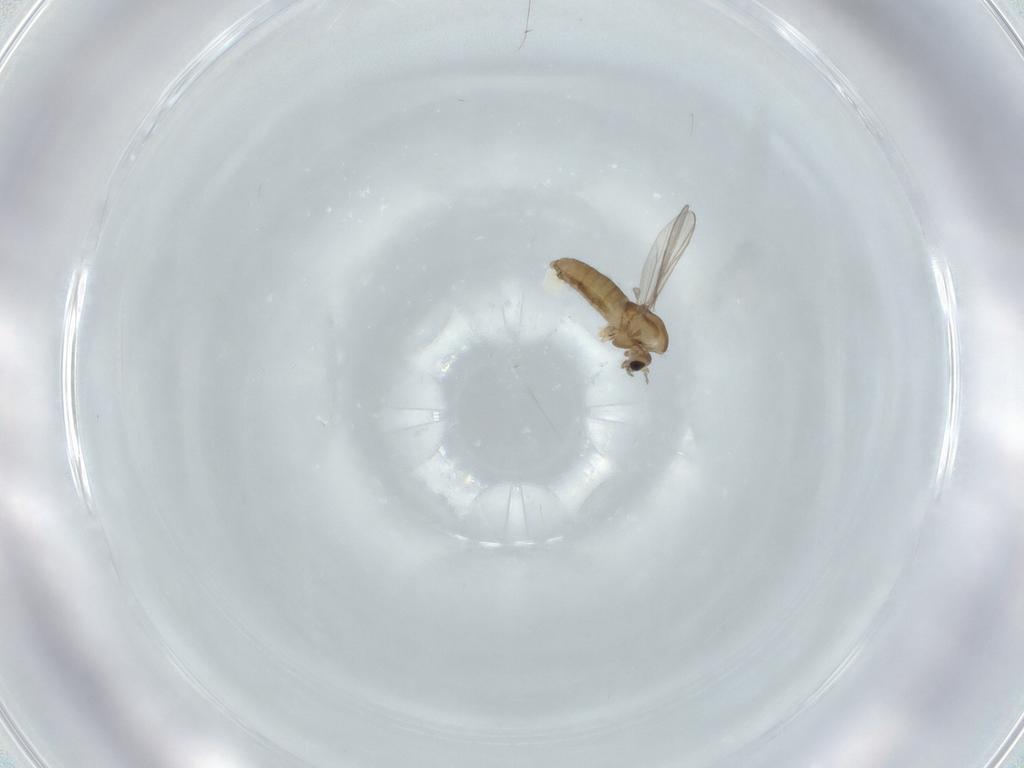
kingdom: Animalia
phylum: Arthropoda
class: Insecta
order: Diptera
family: Chironomidae
